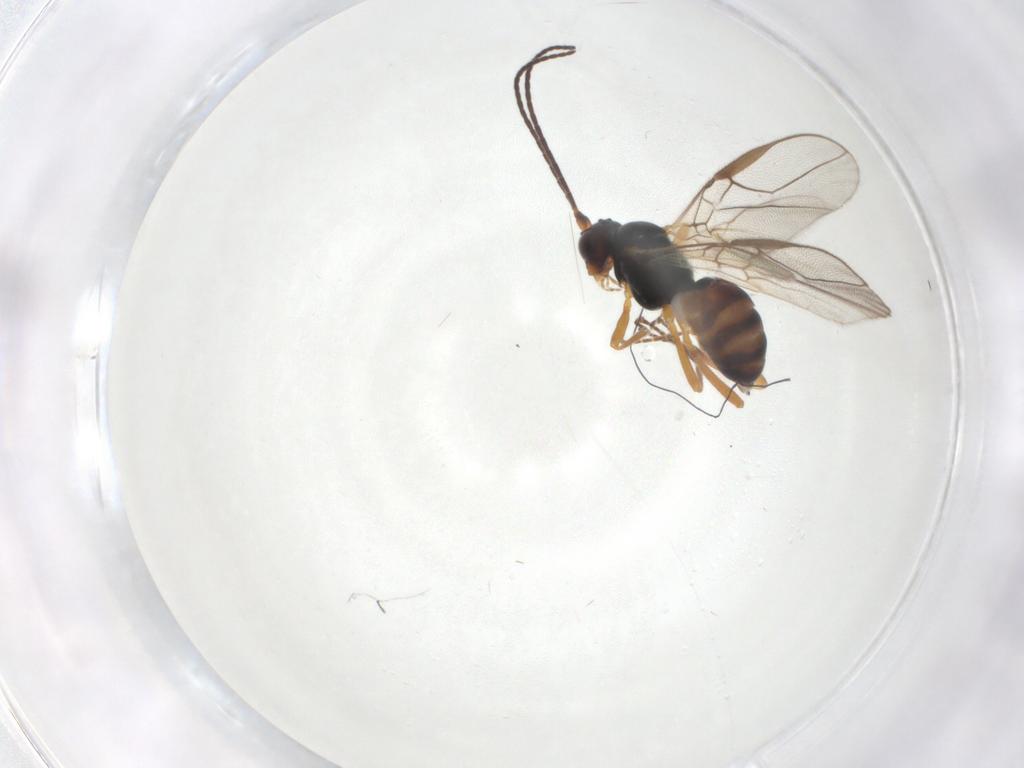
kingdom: Animalia
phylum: Arthropoda
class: Insecta
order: Hymenoptera
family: Braconidae
